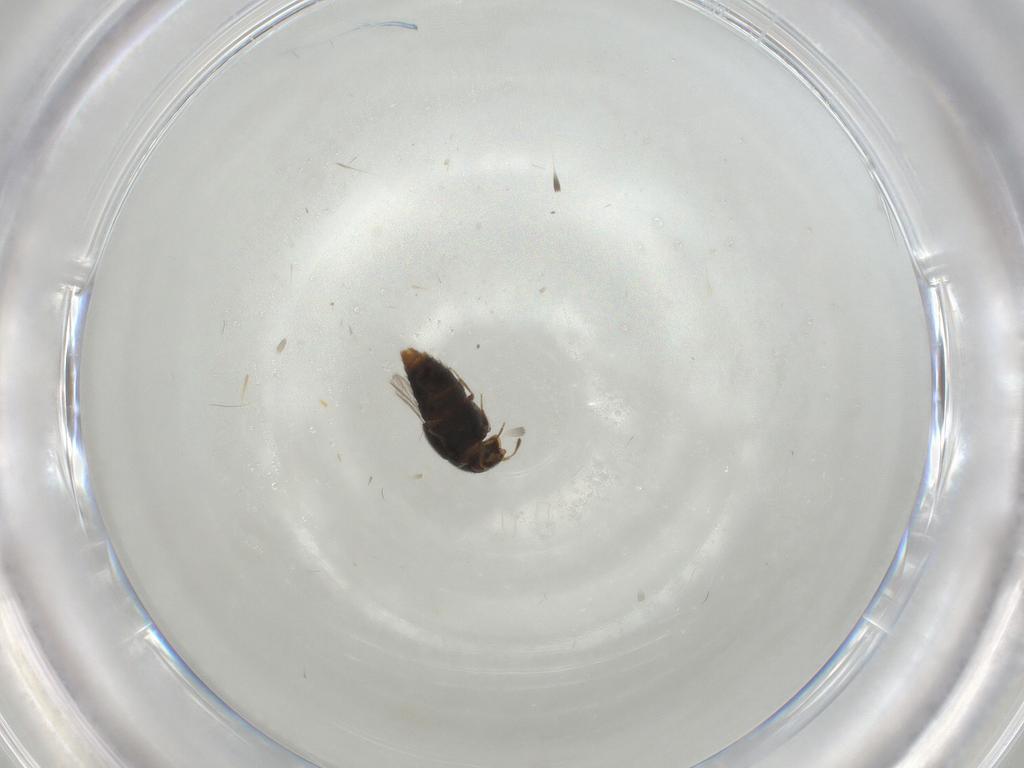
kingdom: Animalia
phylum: Arthropoda
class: Insecta
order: Coleoptera
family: Staphylinidae
